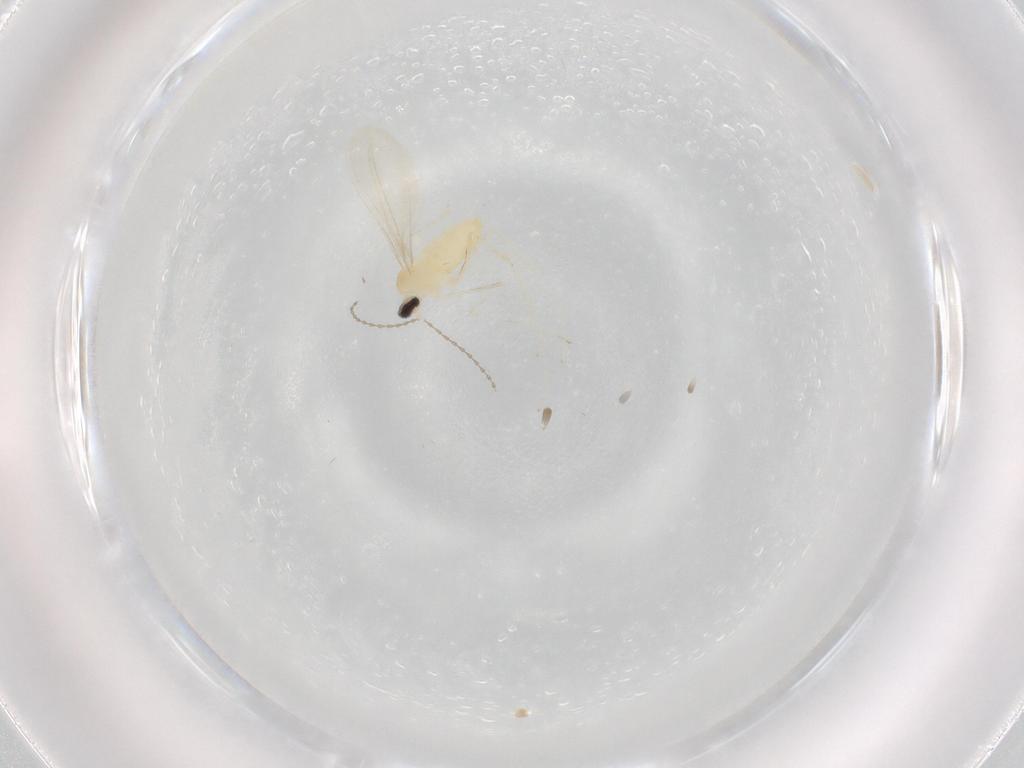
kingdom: Animalia
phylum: Arthropoda
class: Insecta
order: Diptera
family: Cecidomyiidae
